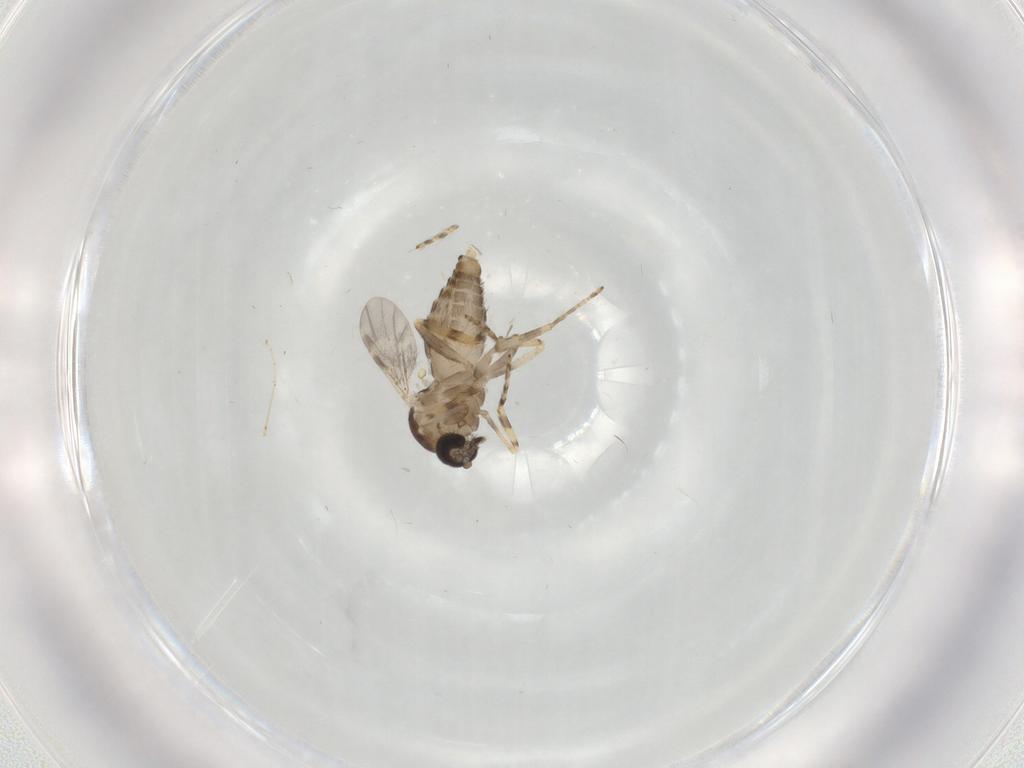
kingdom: Animalia
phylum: Arthropoda
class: Insecta
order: Diptera
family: Ceratopogonidae
